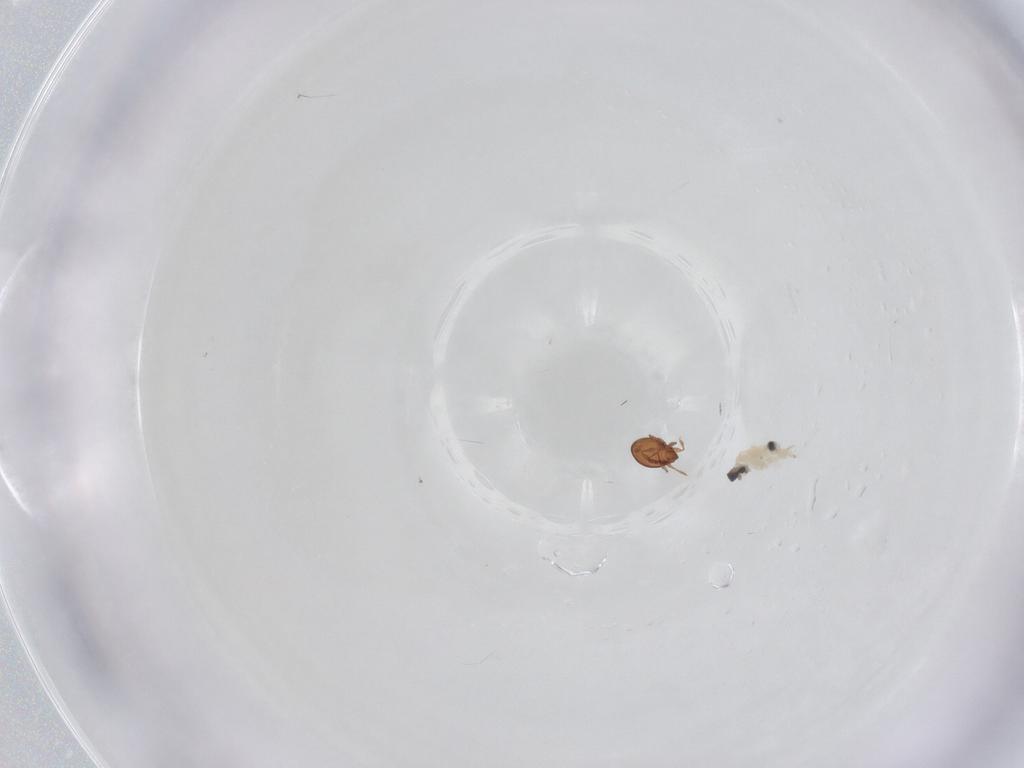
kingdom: Animalia
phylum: Arthropoda
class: Insecta
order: Diptera
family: Cecidomyiidae
